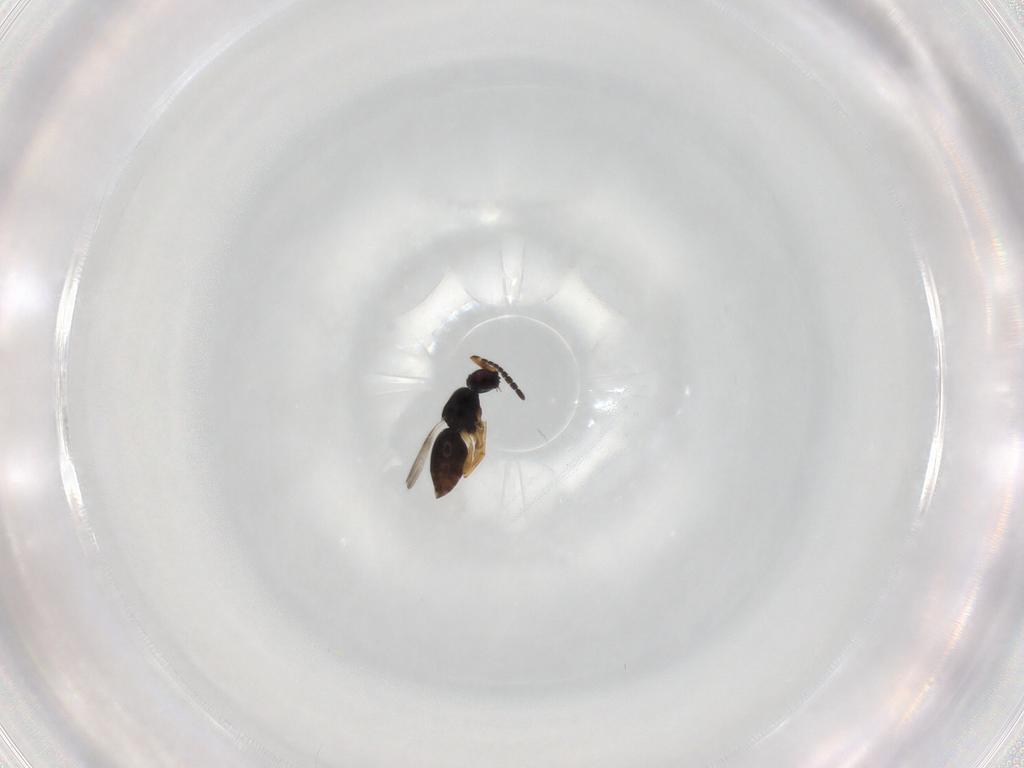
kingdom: Animalia
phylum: Arthropoda
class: Insecta
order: Hymenoptera
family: Ceraphronidae
